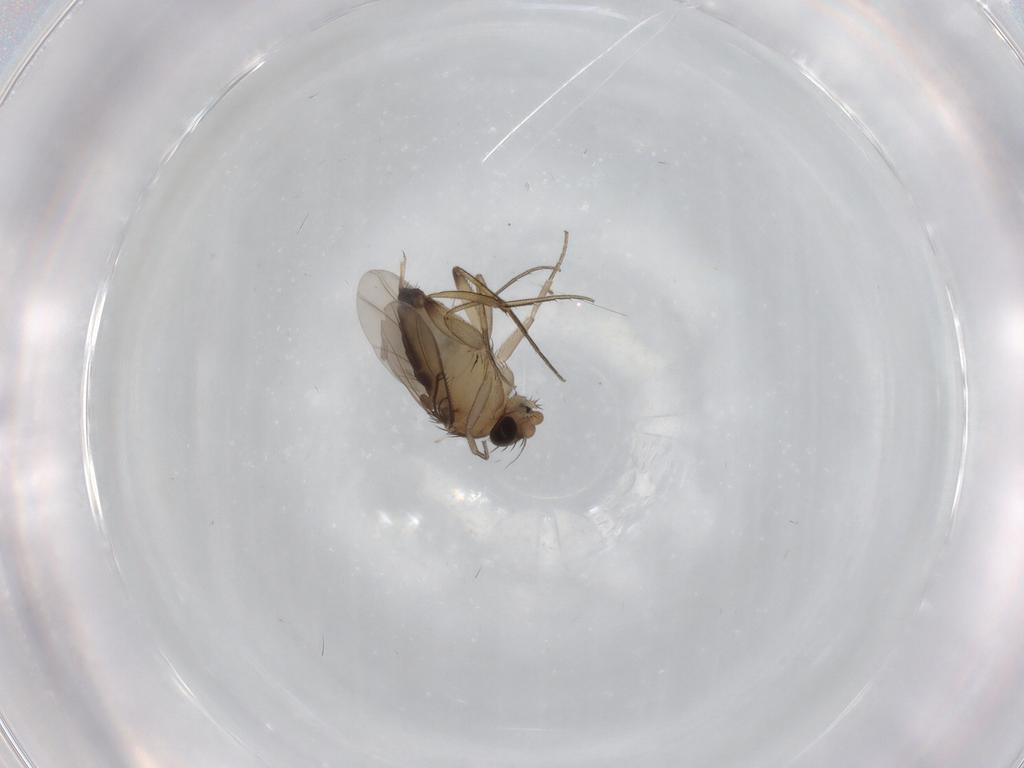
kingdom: Animalia
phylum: Arthropoda
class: Insecta
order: Diptera
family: Phoridae
